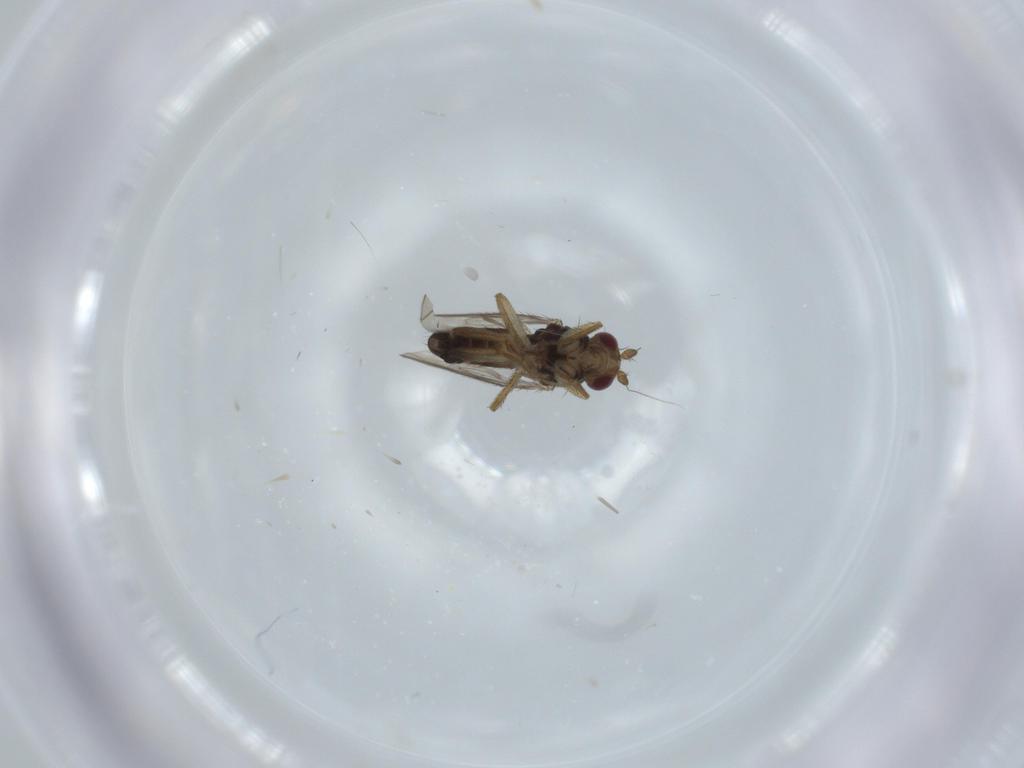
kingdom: Animalia
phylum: Arthropoda
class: Insecta
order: Diptera
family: Sphaeroceridae
